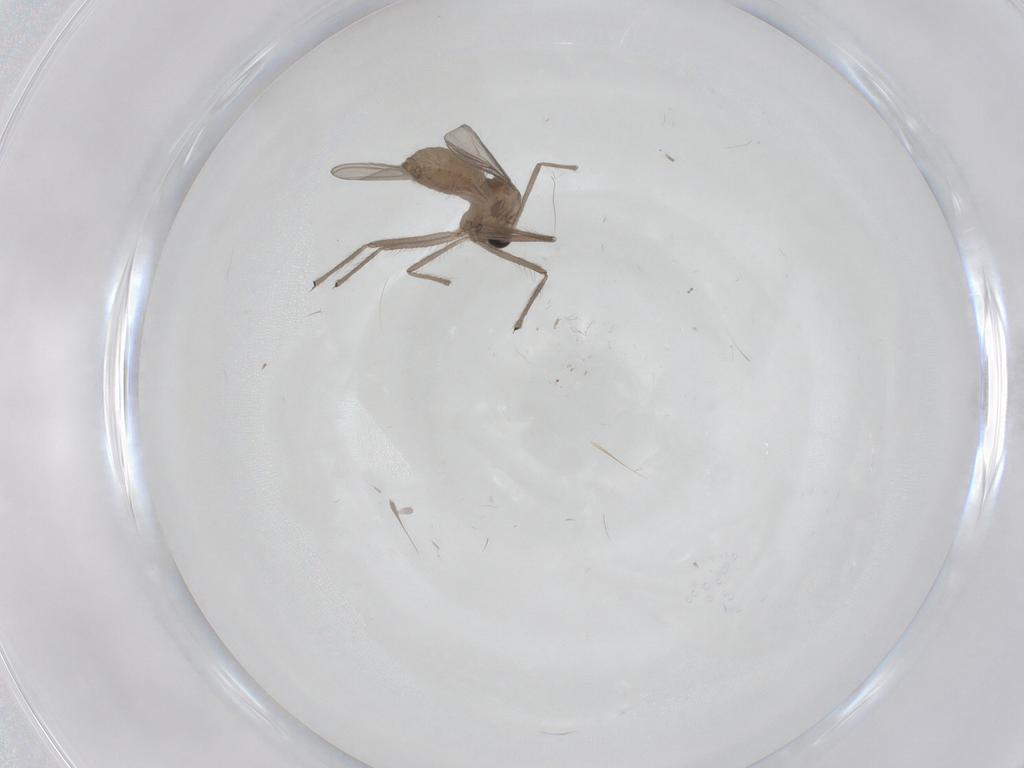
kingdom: Animalia
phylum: Arthropoda
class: Insecta
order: Diptera
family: Chironomidae
